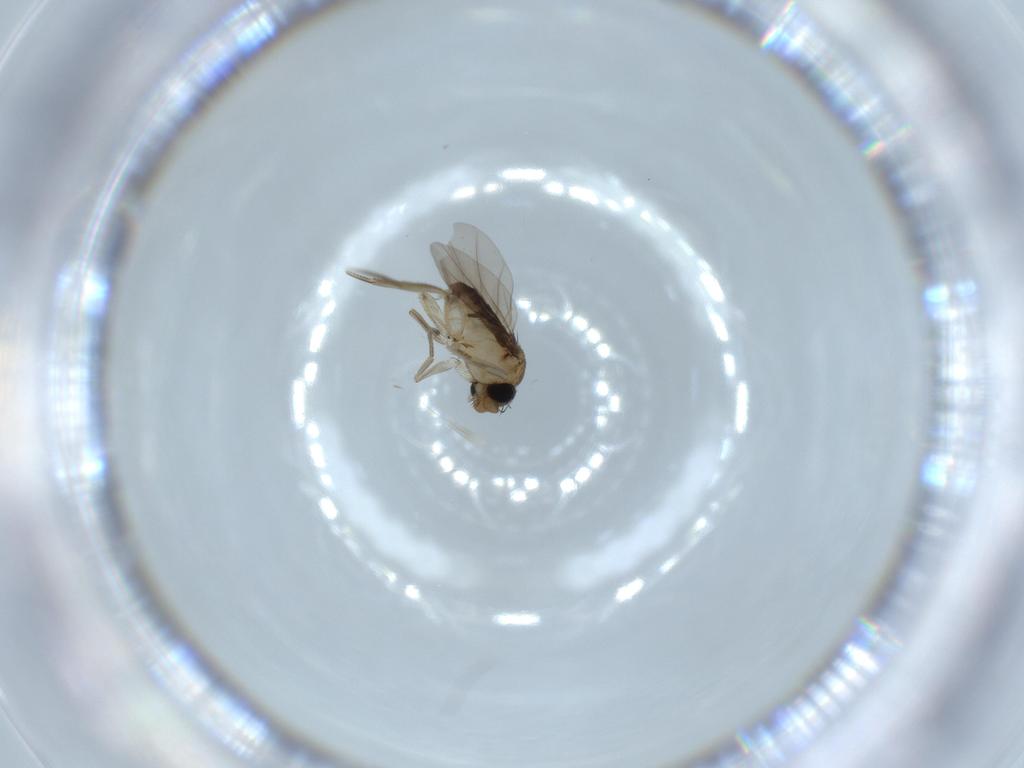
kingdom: Animalia
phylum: Arthropoda
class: Insecta
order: Diptera
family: Phoridae
